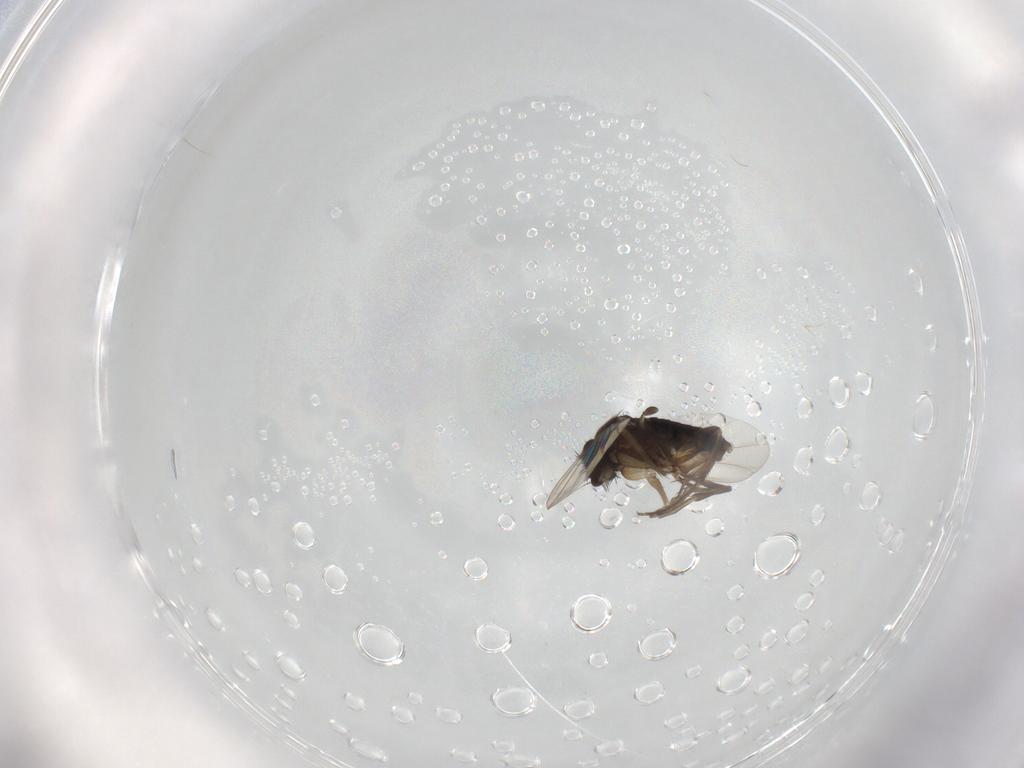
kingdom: Animalia
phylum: Arthropoda
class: Insecta
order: Diptera
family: Phoridae
